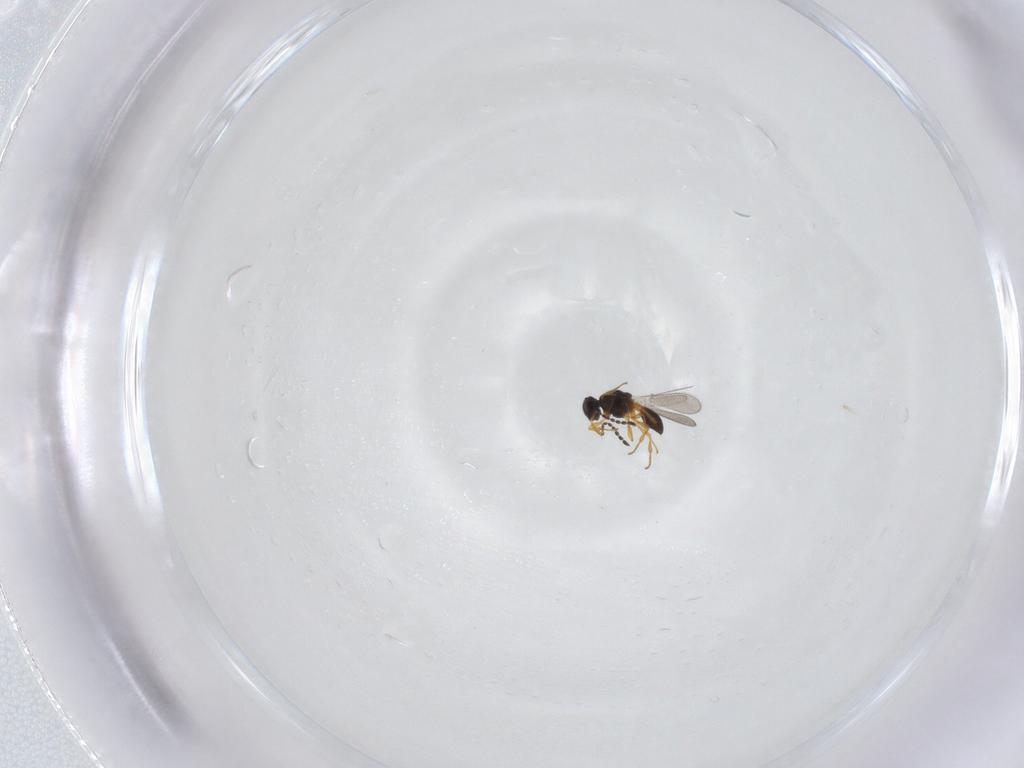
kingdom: Animalia
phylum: Arthropoda
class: Insecta
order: Hymenoptera
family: Platygastridae
